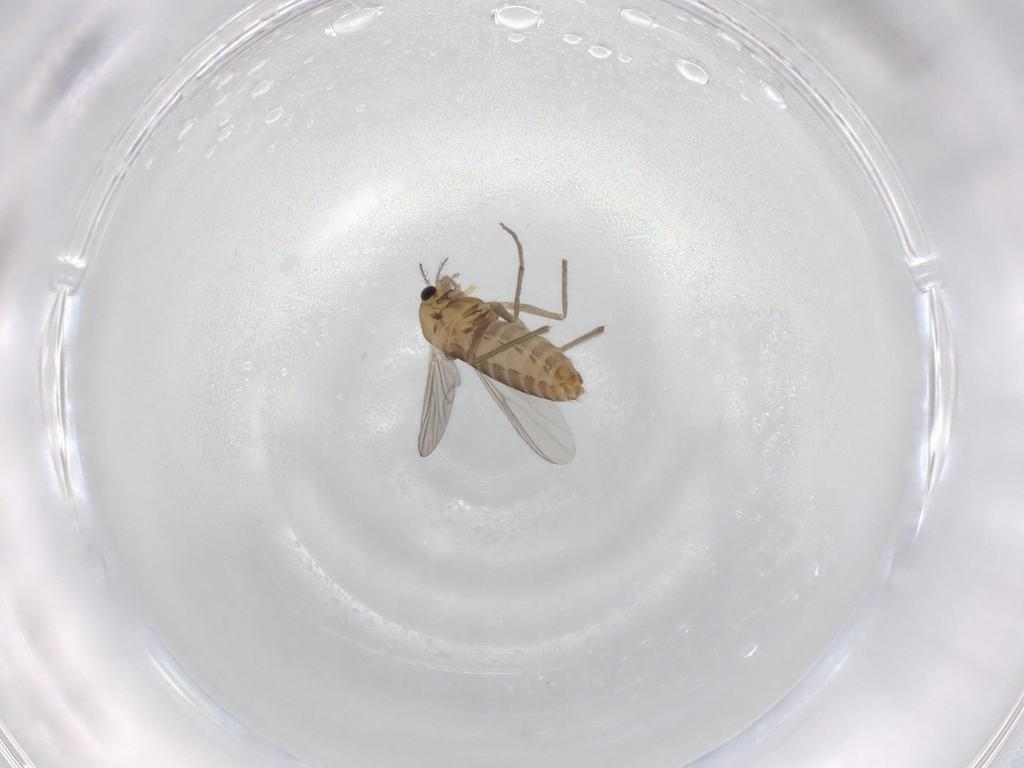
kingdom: Animalia
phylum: Arthropoda
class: Insecta
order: Diptera
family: Chironomidae
